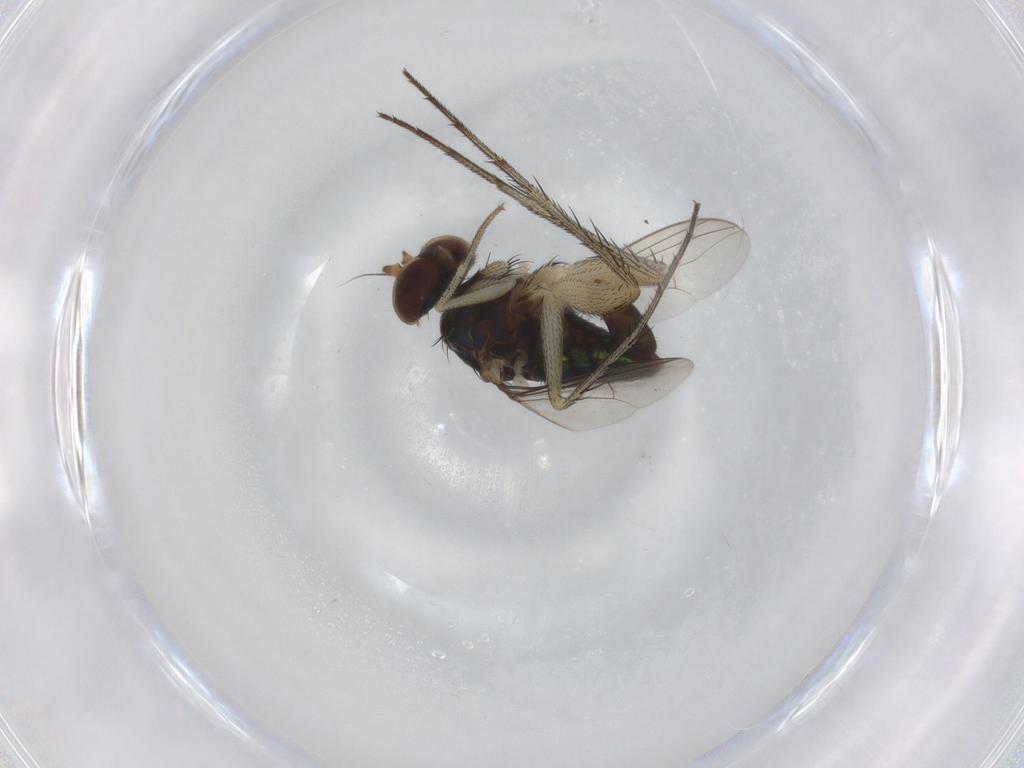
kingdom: Animalia
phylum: Arthropoda
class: Insecta
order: Diptera
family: Dolichopodidae
